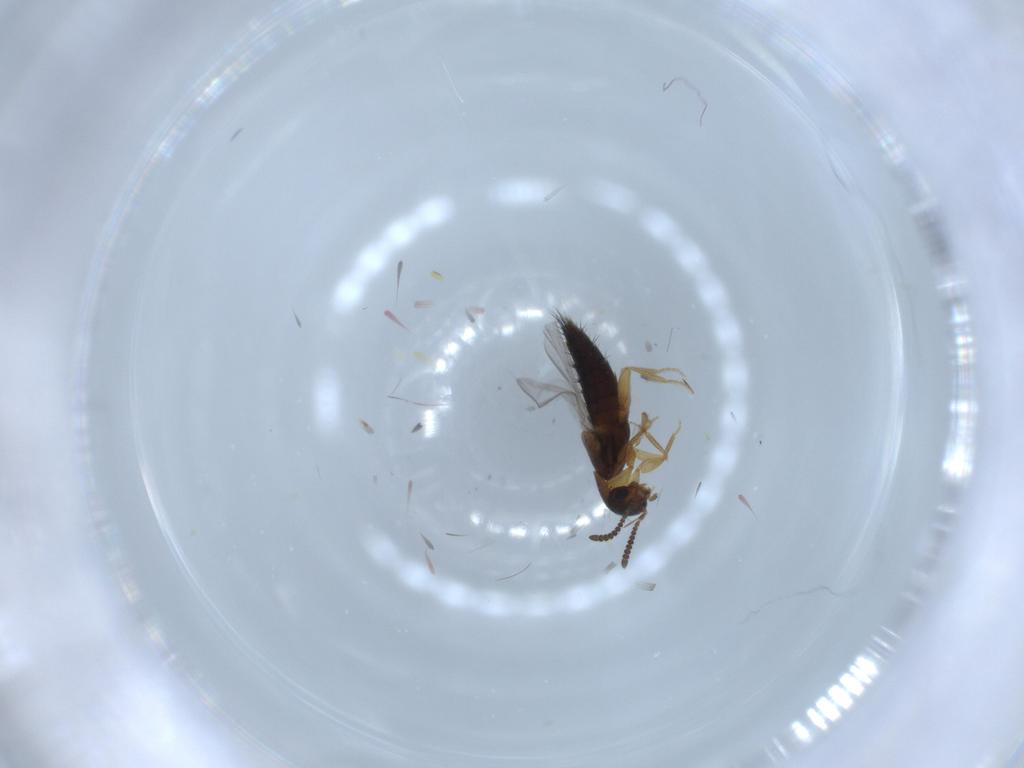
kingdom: Animalia
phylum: Arthropoda
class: Insecta
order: Coleoptera
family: Staphylinidae
